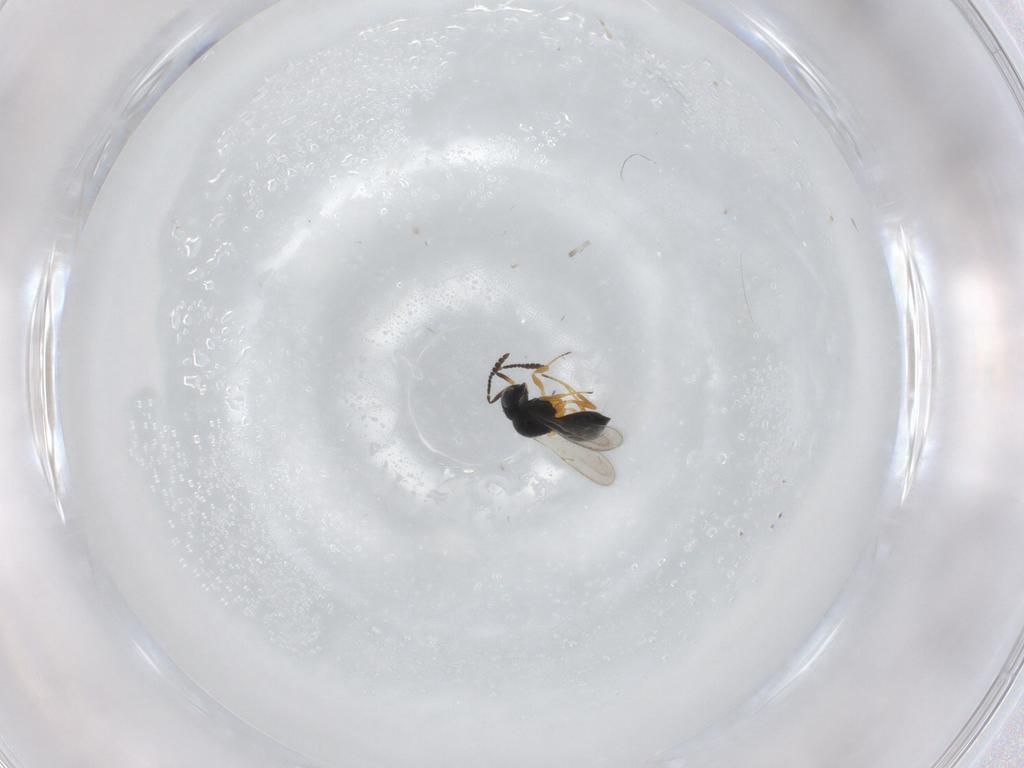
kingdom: Animalia
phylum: Arthropoda
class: Insecta
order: Hymenoptera
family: Scelionidae
